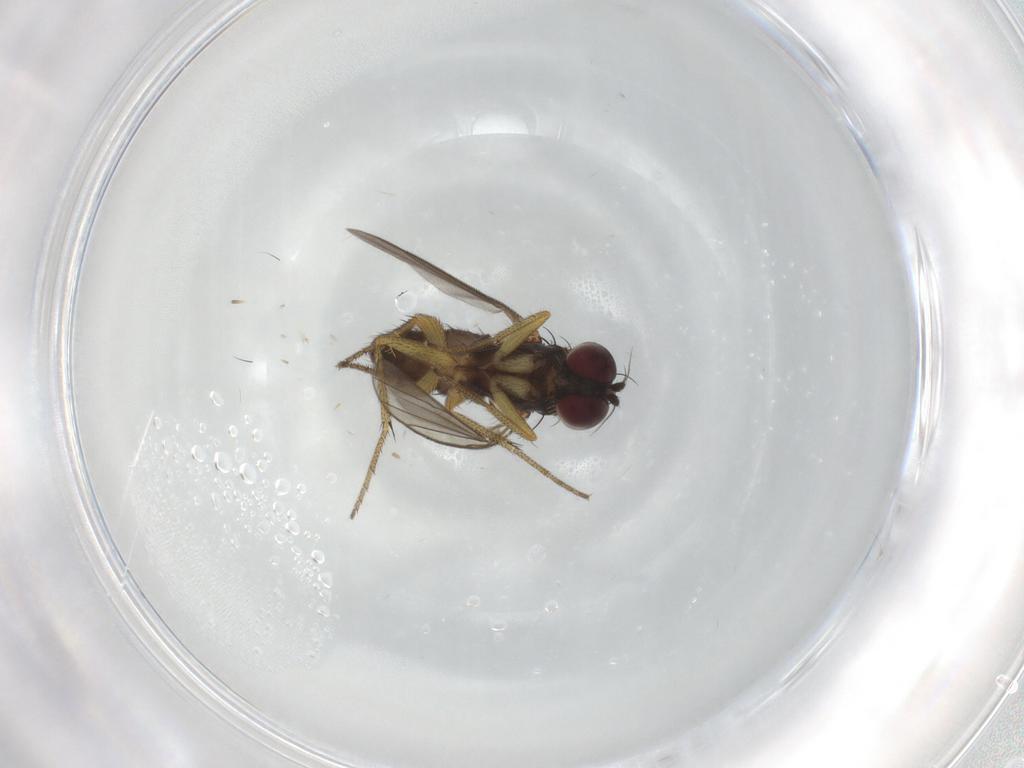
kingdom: Animalia
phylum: Arthropoda
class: Insecta
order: Diptera
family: Dolichopodidae
